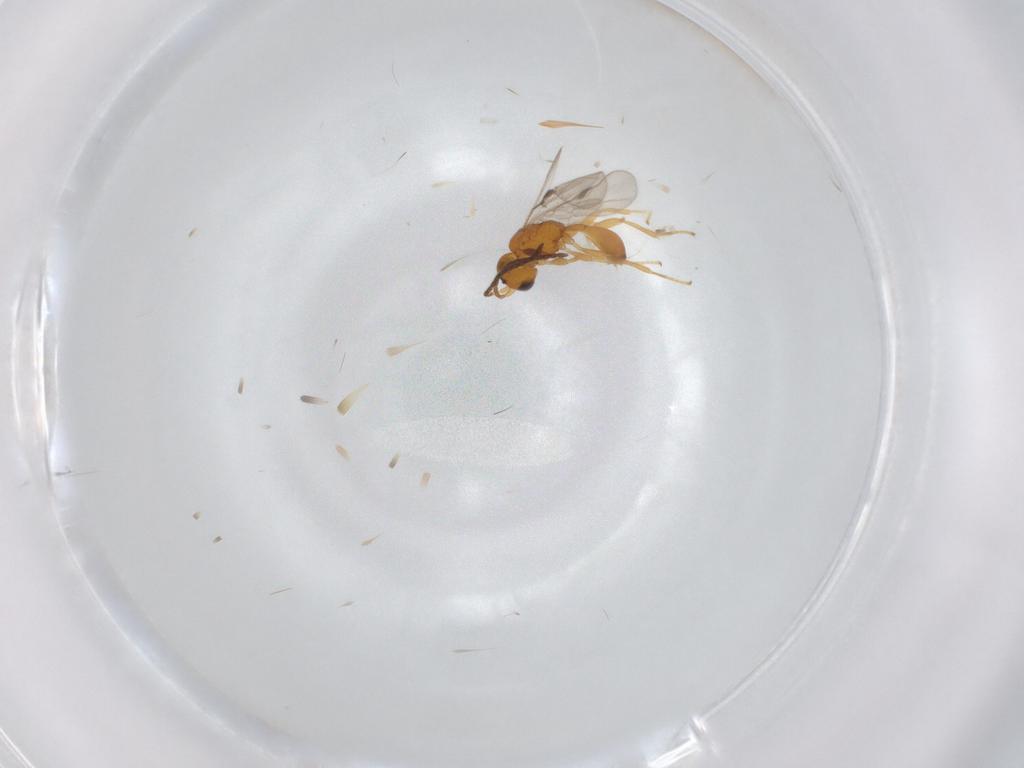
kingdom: Animalia
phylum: Arthropoda
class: Insecta
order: Hymenoptera
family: Braconidae
